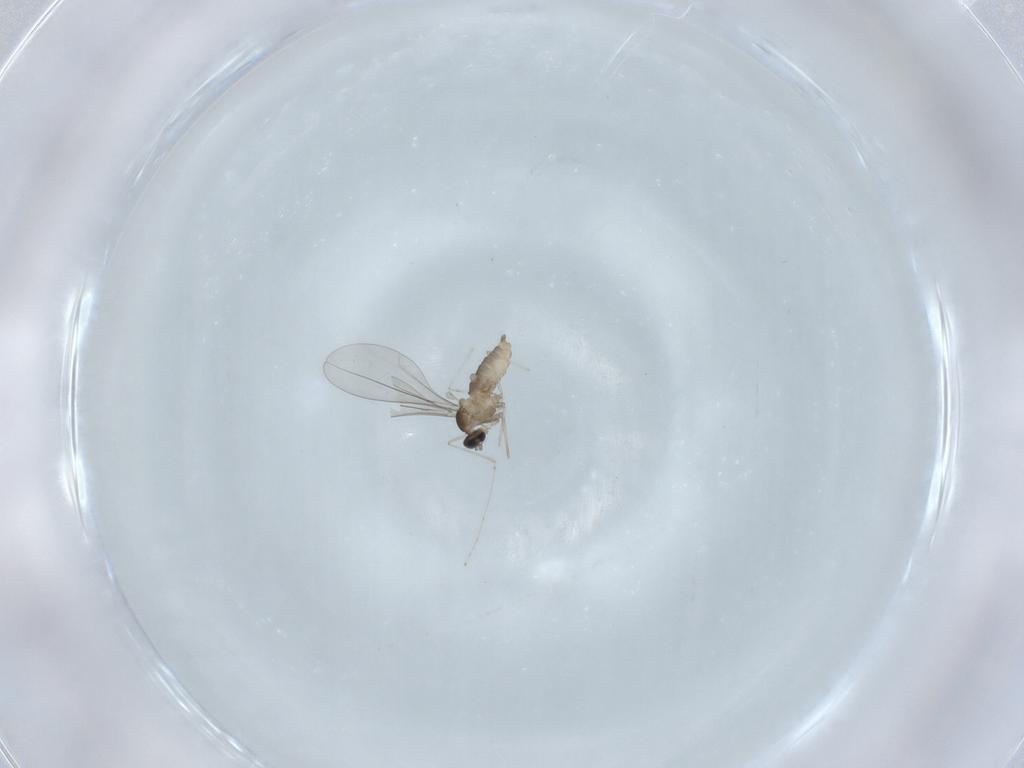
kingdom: Animalia
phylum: Arthropoda
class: Insecta
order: Diptera
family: Cecidomyiidae
